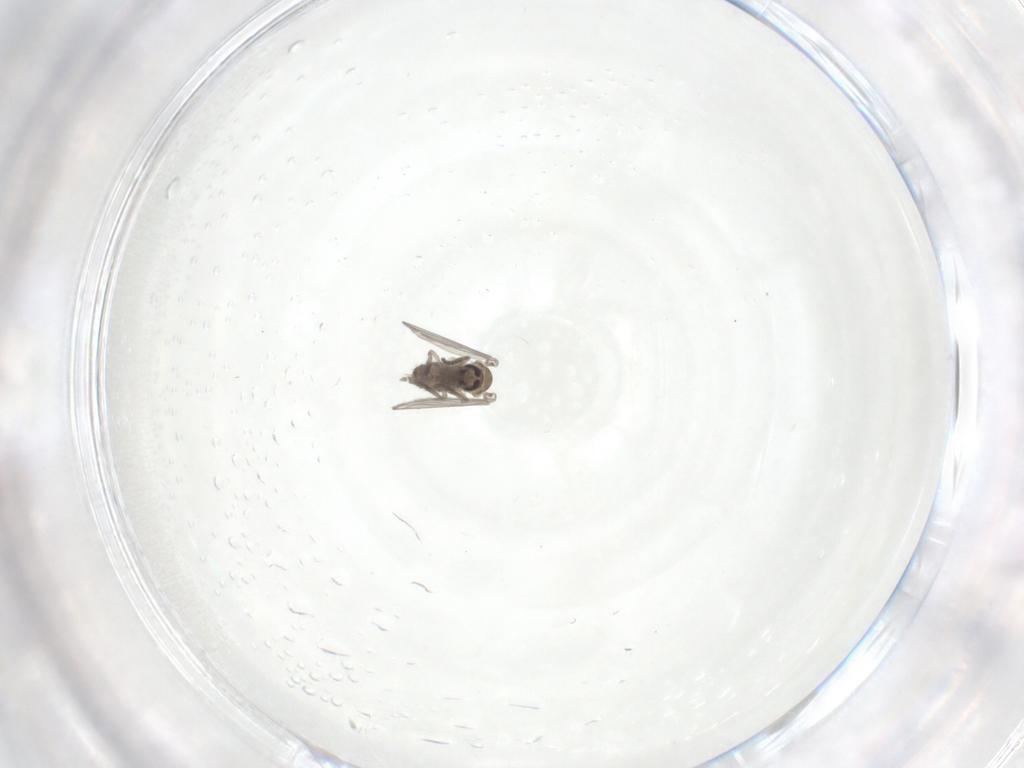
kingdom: Animalia
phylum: Arthropoda
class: Insecta
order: Diptera
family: Psychodidae
